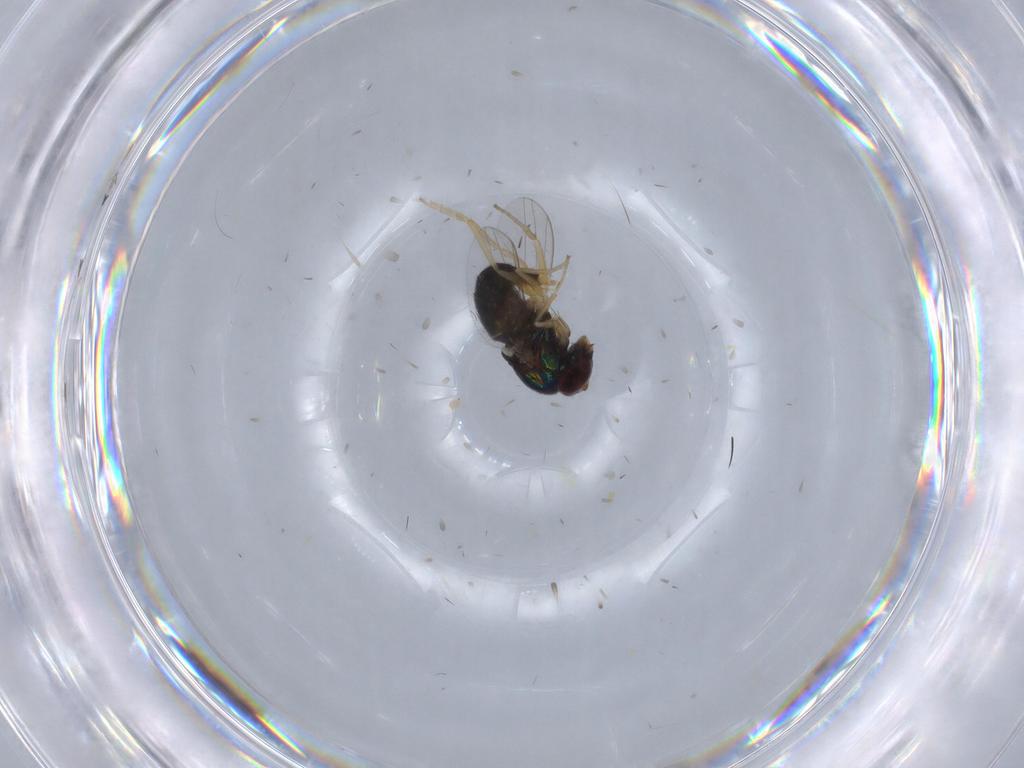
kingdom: Animalia
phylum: Arthropoda
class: Insecta
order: Diptera
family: Dolichopodidae
